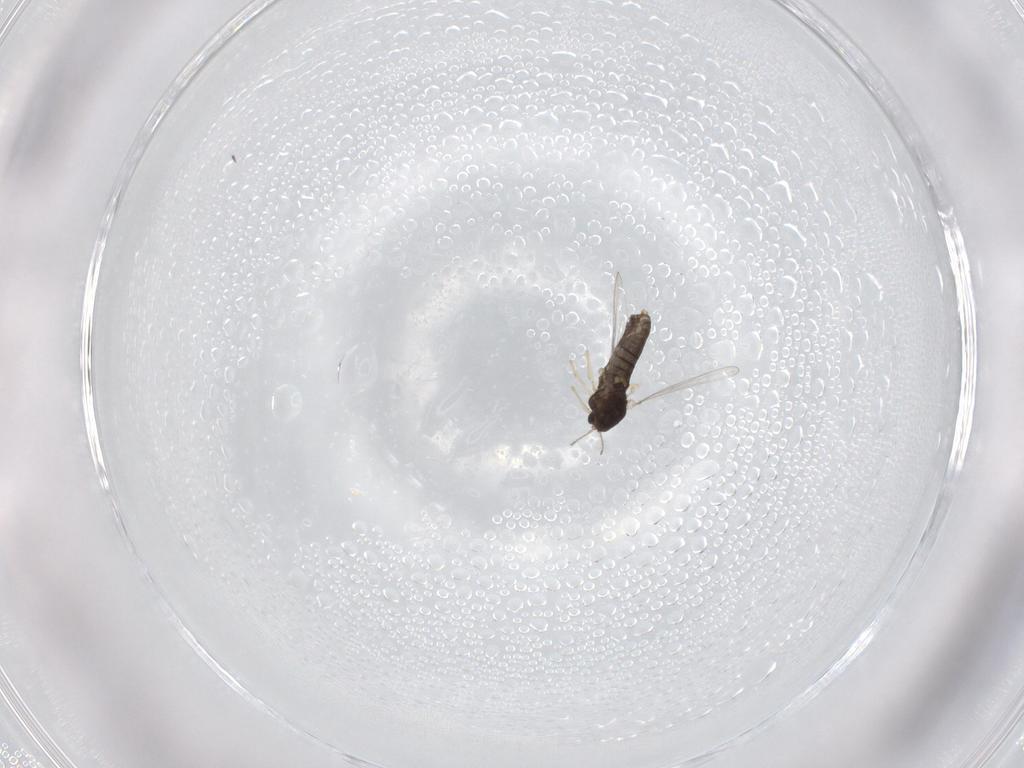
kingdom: Animalia
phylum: Arthropoda
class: Insecta
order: Diptera
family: Chironomidae
